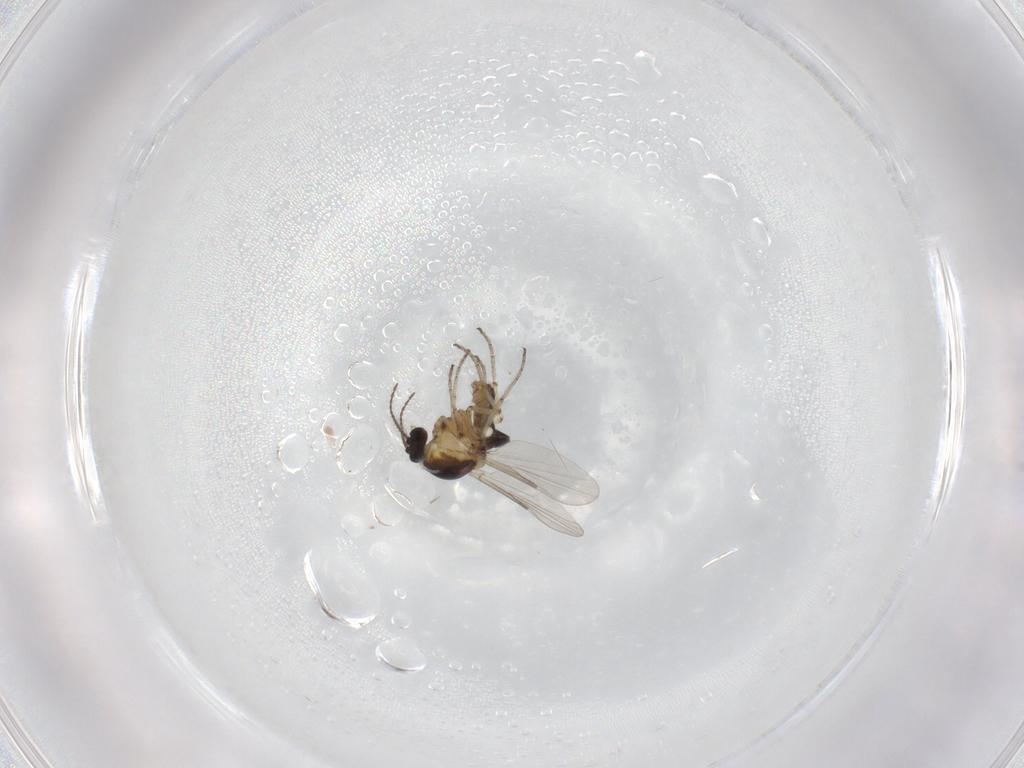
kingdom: Animalia
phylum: Arthropoda
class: Insecta
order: Diptera
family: Ceratopogonidae
